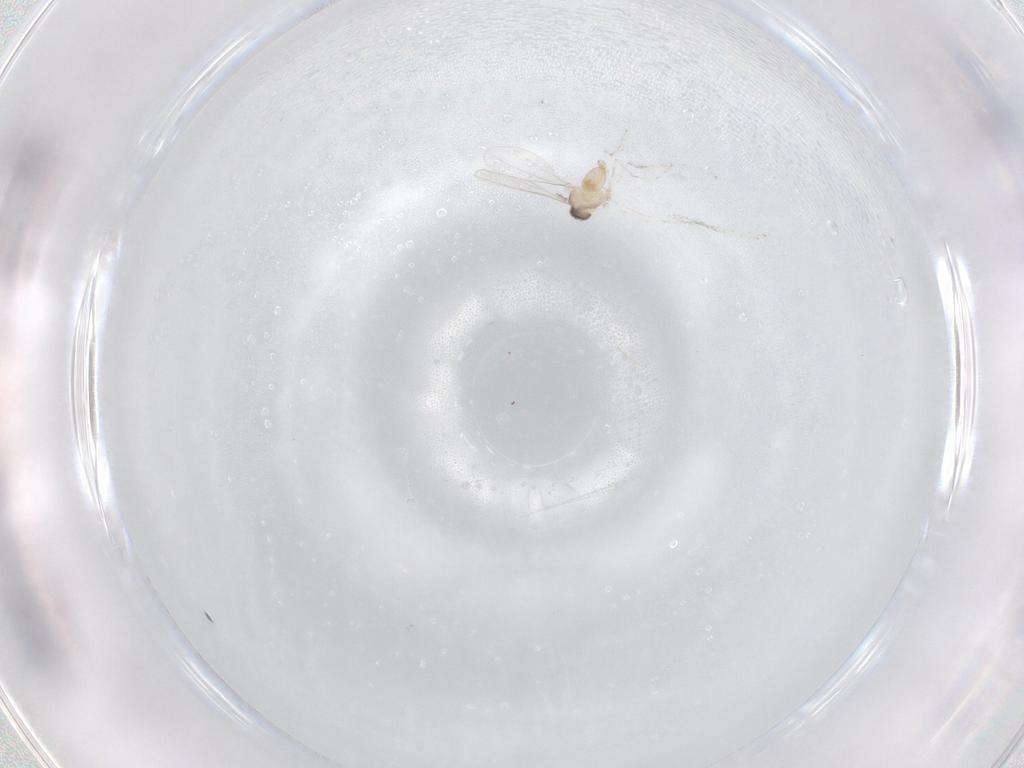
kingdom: Animalia
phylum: Arthropoda
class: Insecta
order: Diptera
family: Cecidomyiidae
